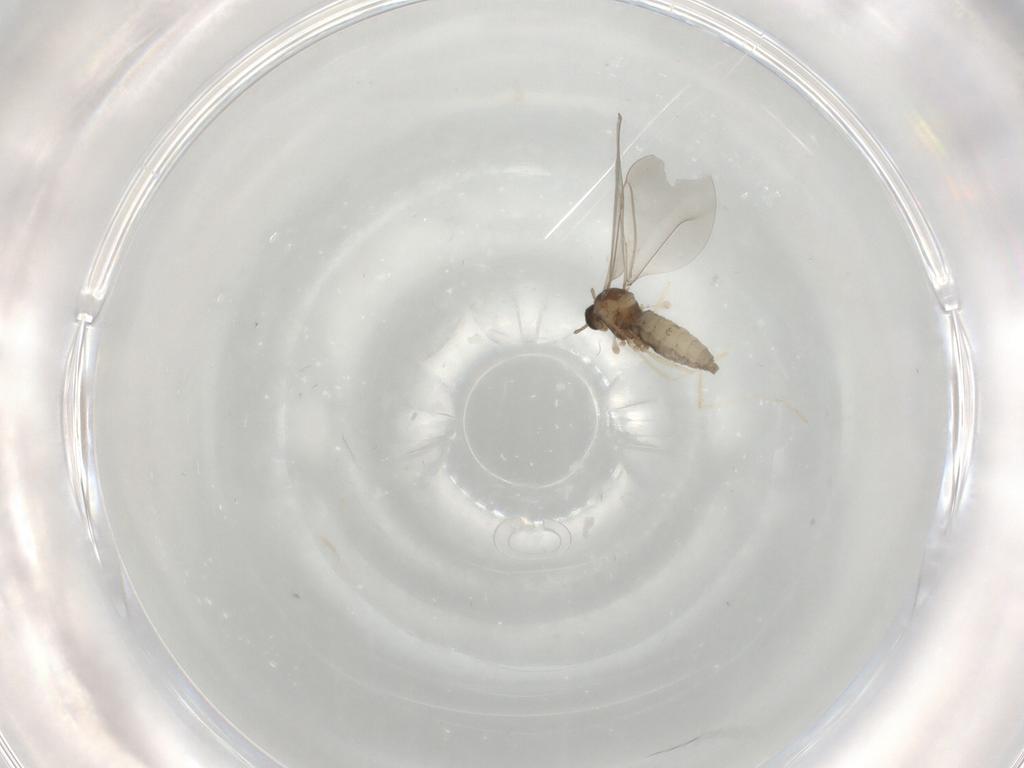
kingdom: Animalia
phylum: Arthropoda
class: Insecta
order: Diptera
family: Cecidomyiidae
